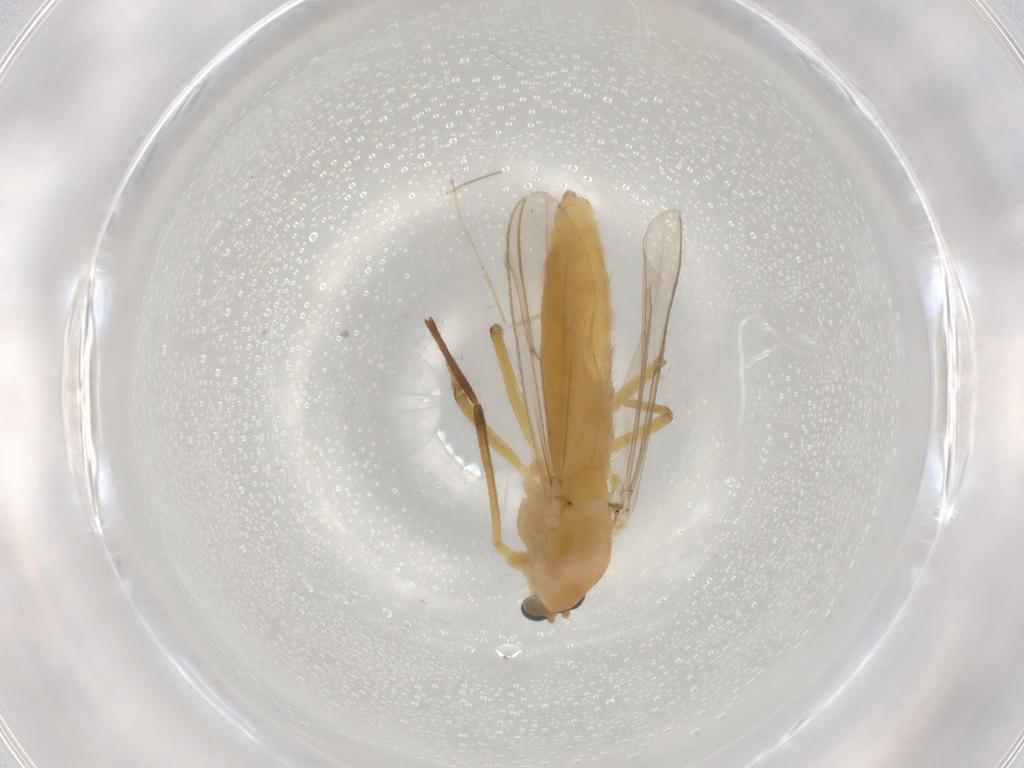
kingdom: Animalia
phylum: Arthropoda
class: Insecta
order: Diptera
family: Chironomidae
